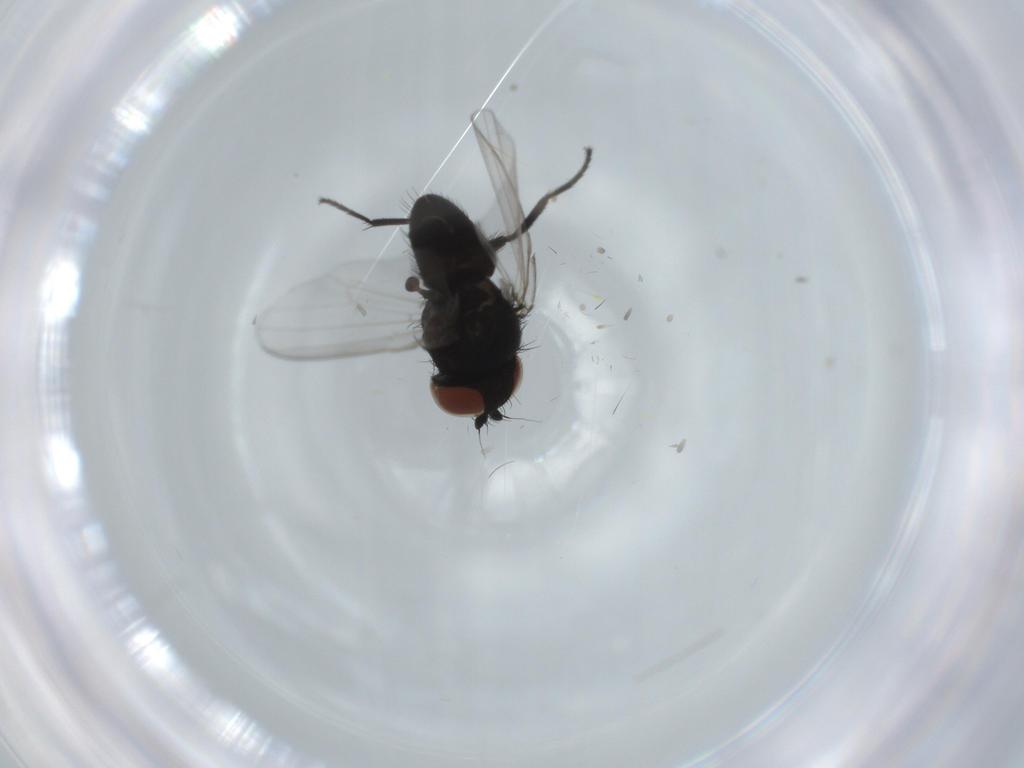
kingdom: Animalia
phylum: Arthropoda
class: Insecta
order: Diptera
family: Milichiidae
